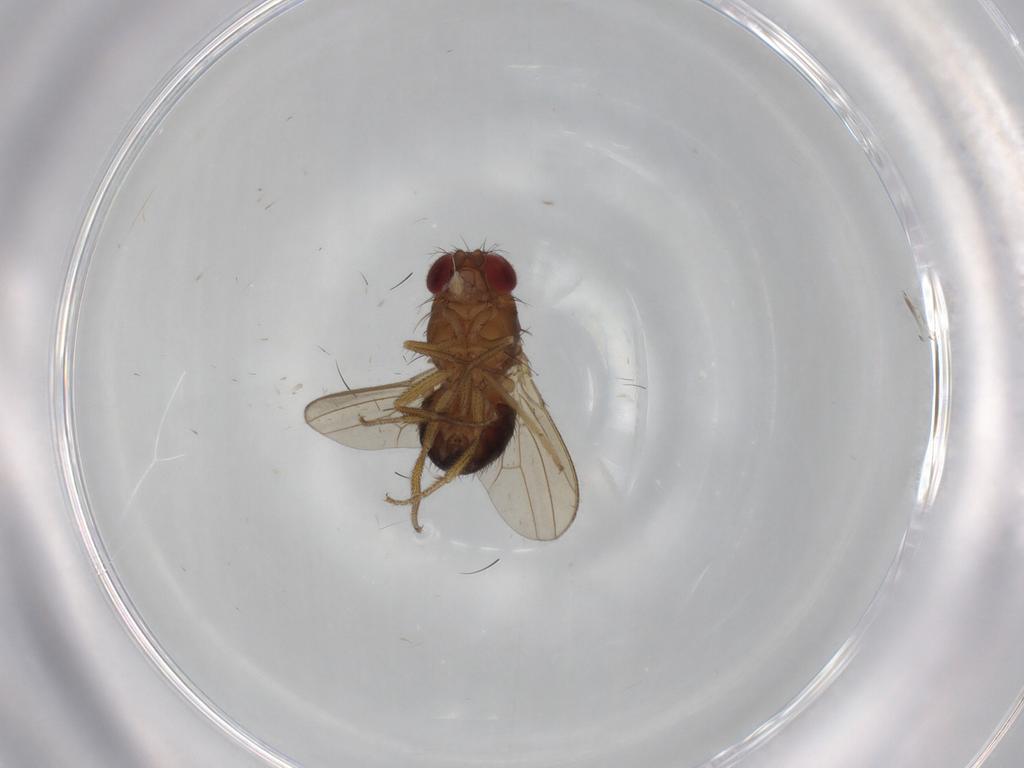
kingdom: Animalia
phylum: Arthropoda
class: Insecta
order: Diptera
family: Drosophilidae
